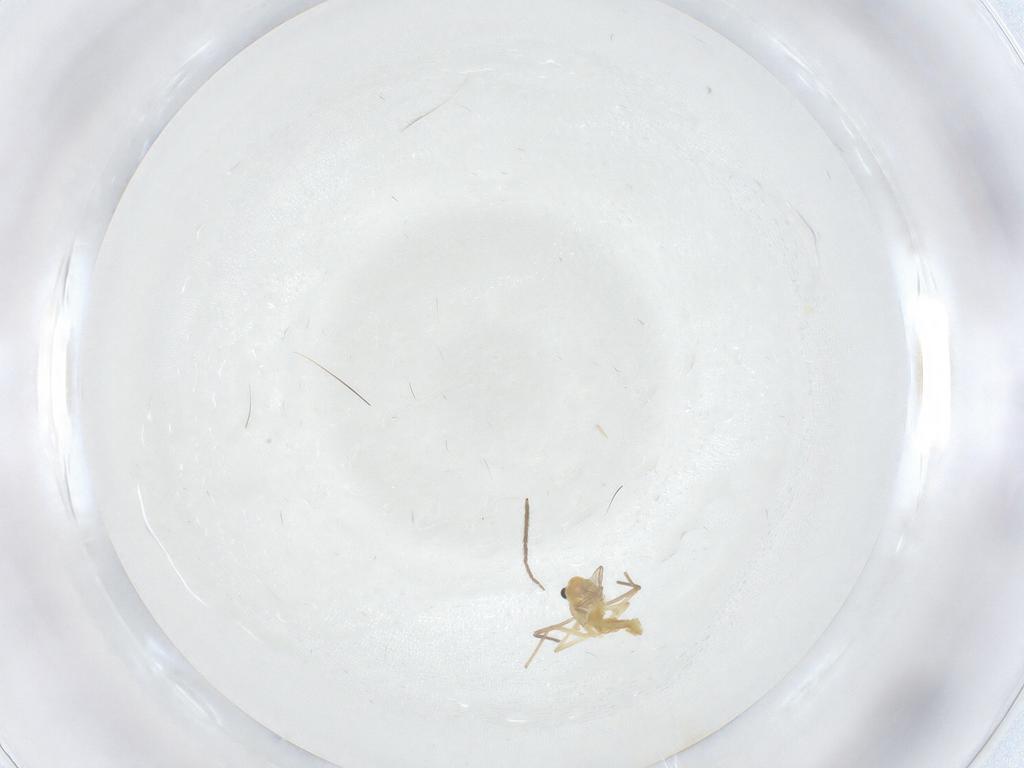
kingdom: Animalia
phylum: Arthropoda
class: Insecta
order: Diptera
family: Chironomidae
